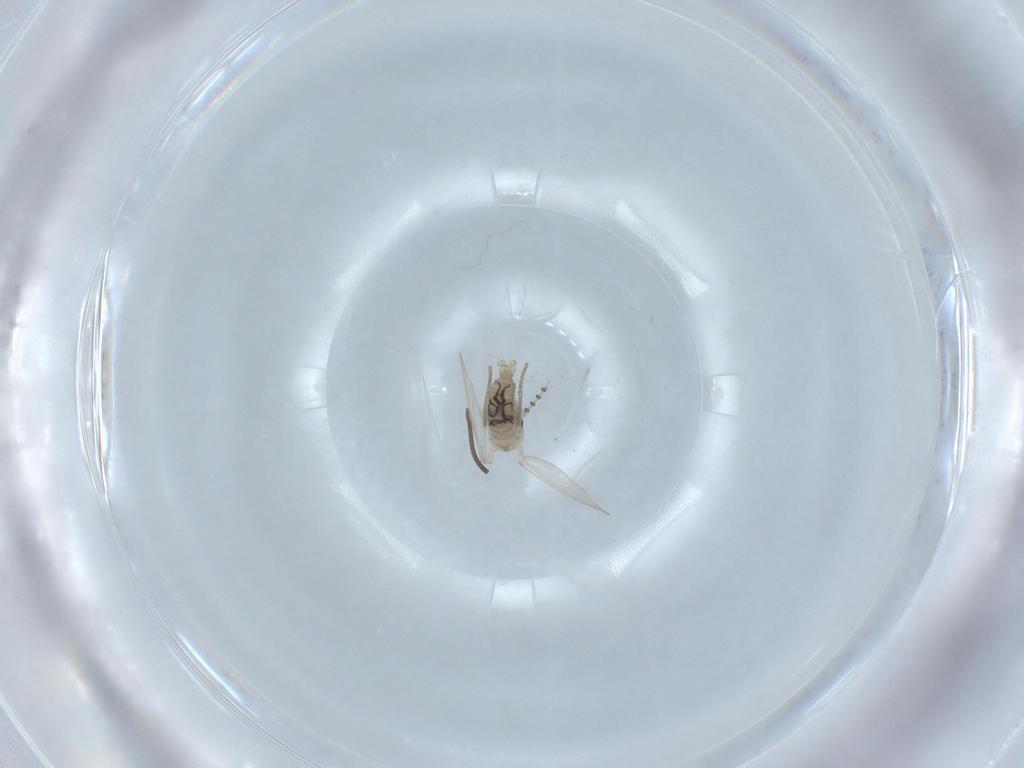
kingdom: Animalia
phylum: Arthropoda
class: Insecta
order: Diptera
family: Psychodidae
